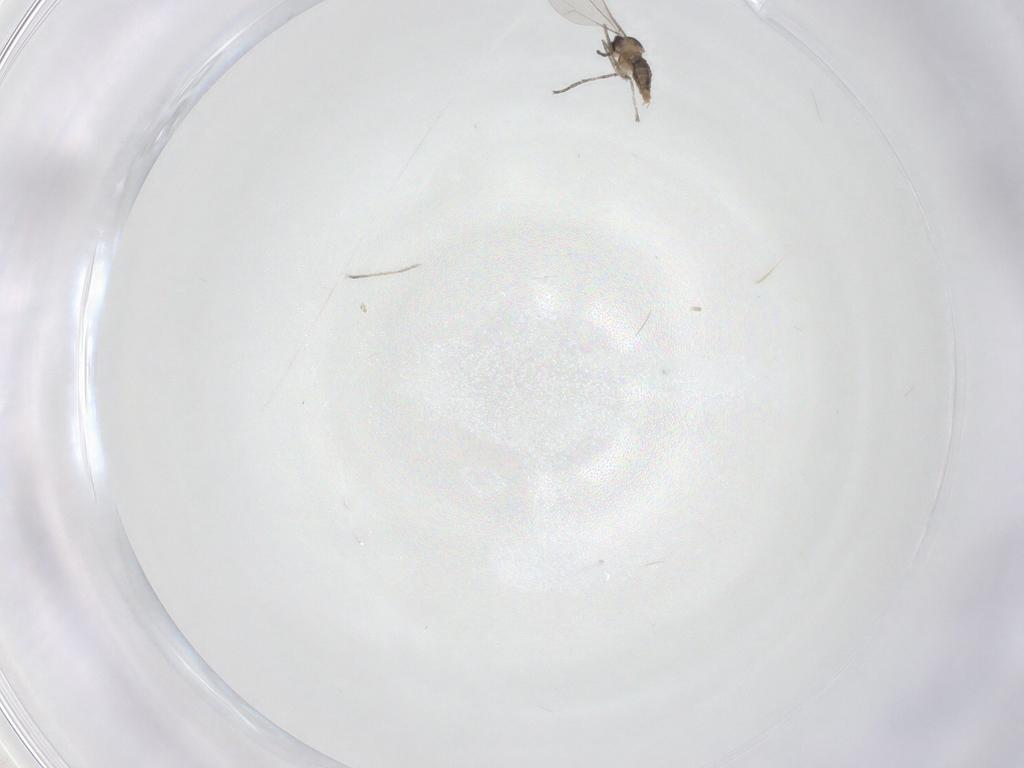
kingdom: Animalia
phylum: Arthropoda
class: Insecta
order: Diptera
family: Cecidomyiidae
